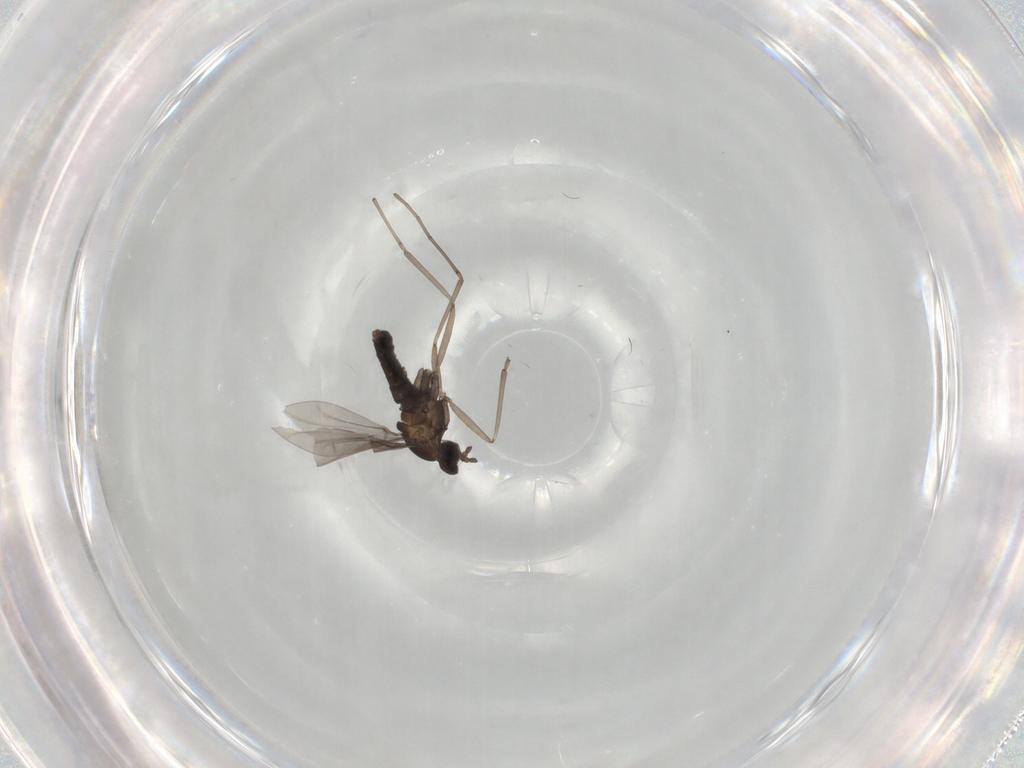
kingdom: Animalia
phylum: Arthropoda
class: Insecta
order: Diptera
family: Cecidomyiidae
